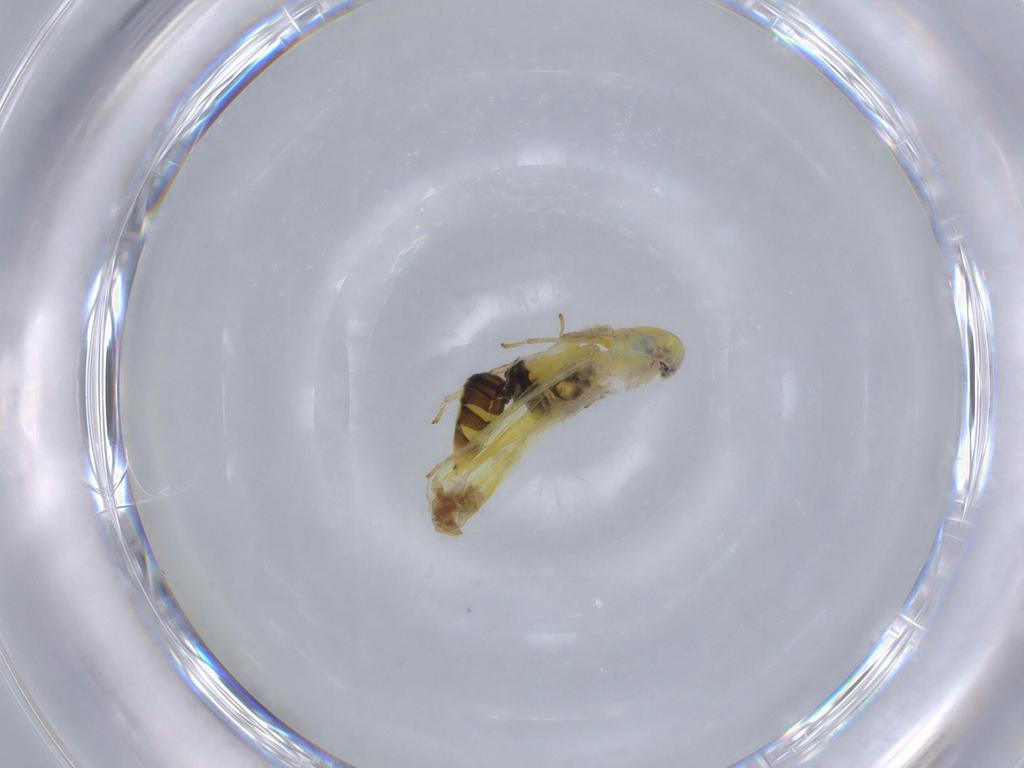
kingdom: Animalia
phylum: Arthropoda
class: Insecta
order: Hemiptera
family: Cicadellidae
